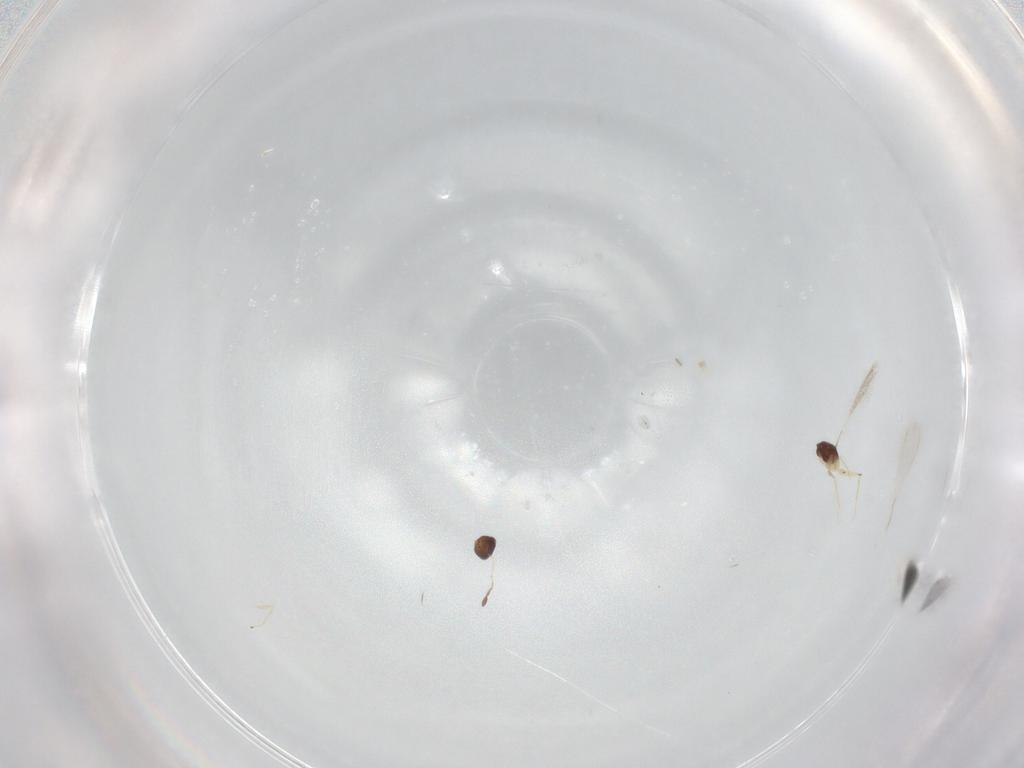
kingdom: Animalia
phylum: Arthropoda
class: Insecta
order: Hymenoptera
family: Mymaridae
